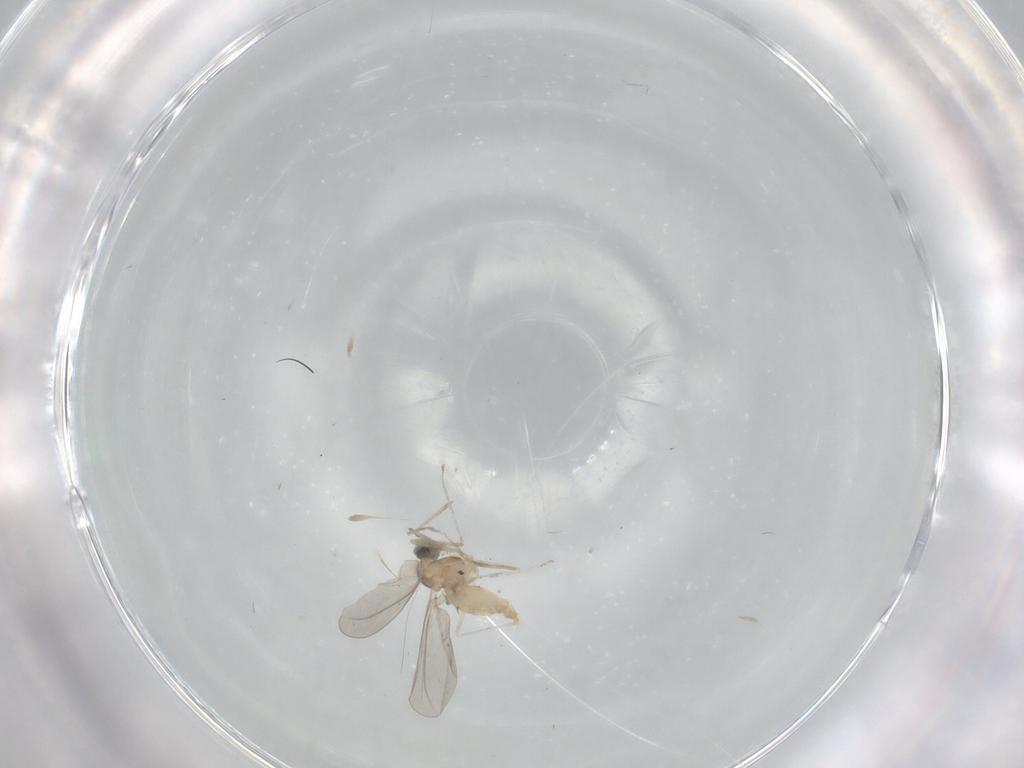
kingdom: Animalia
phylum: Arthropoda
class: Insecta
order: Diptera
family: Cecidomyiidae
